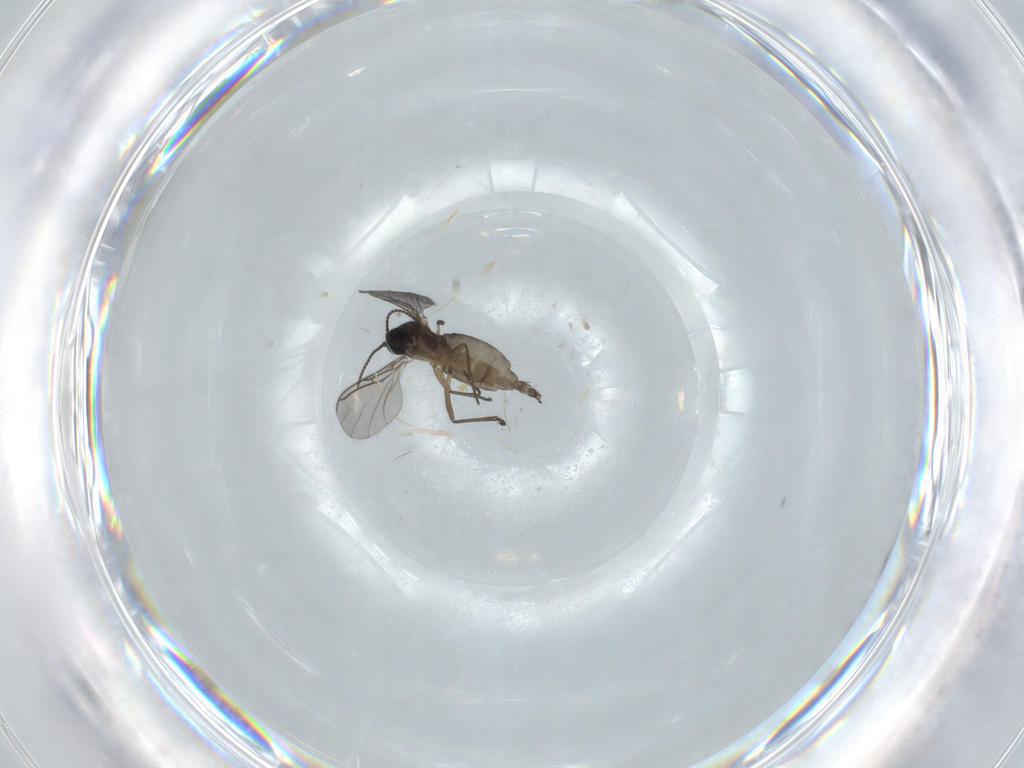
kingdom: Animalia
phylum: Arthropoda
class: Insecta
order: Diptera
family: Sciaridae
